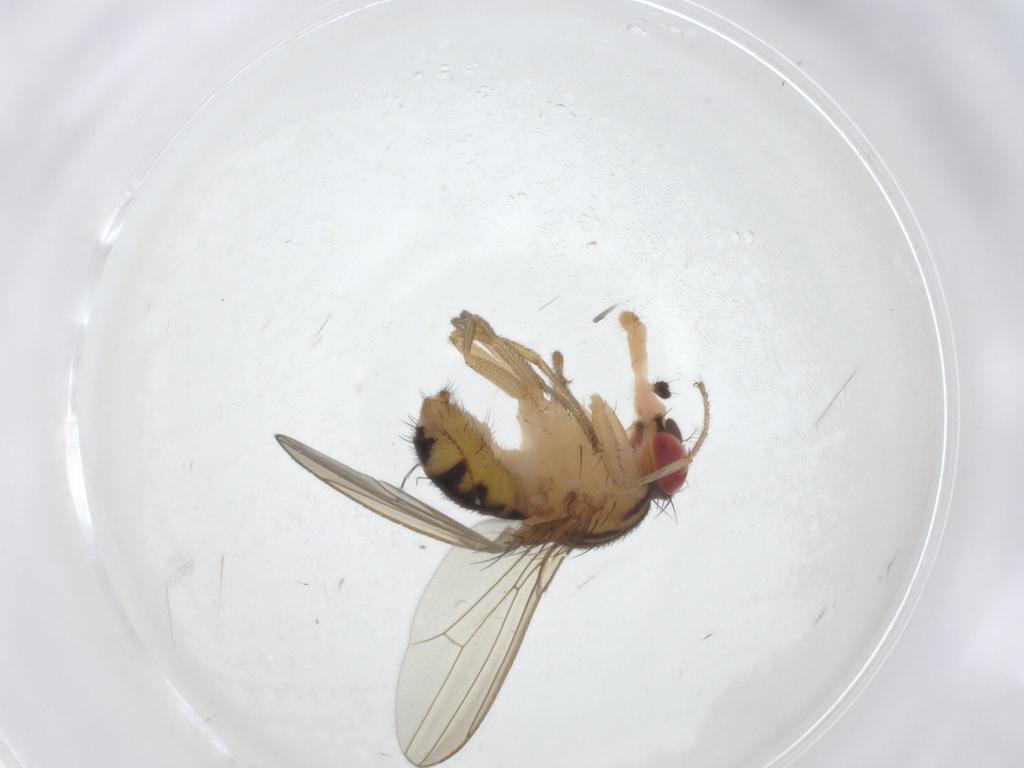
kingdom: Animalia
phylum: Arthropoda
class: Insecta
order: Diptera
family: Drosophilidae
